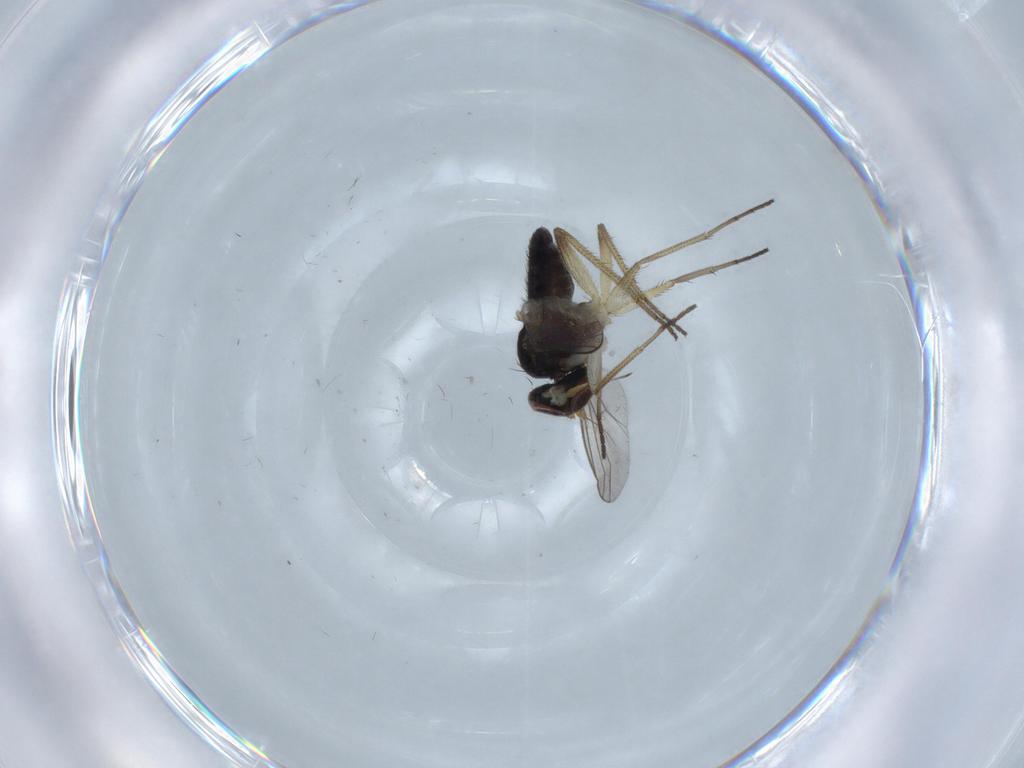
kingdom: Animalia
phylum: Arthropoda
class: Insecta
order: Diptera
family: Dolichopodidae
